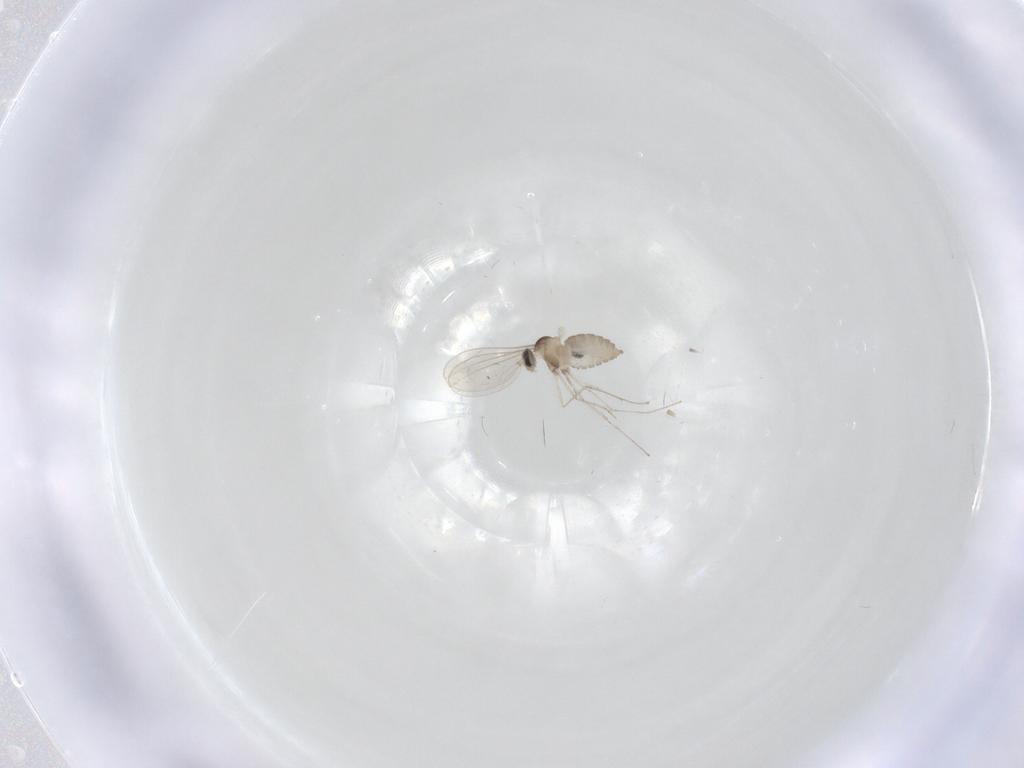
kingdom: Animalia
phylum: Arthropoda
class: Insecta
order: Diptera
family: Cecidomyiidae
